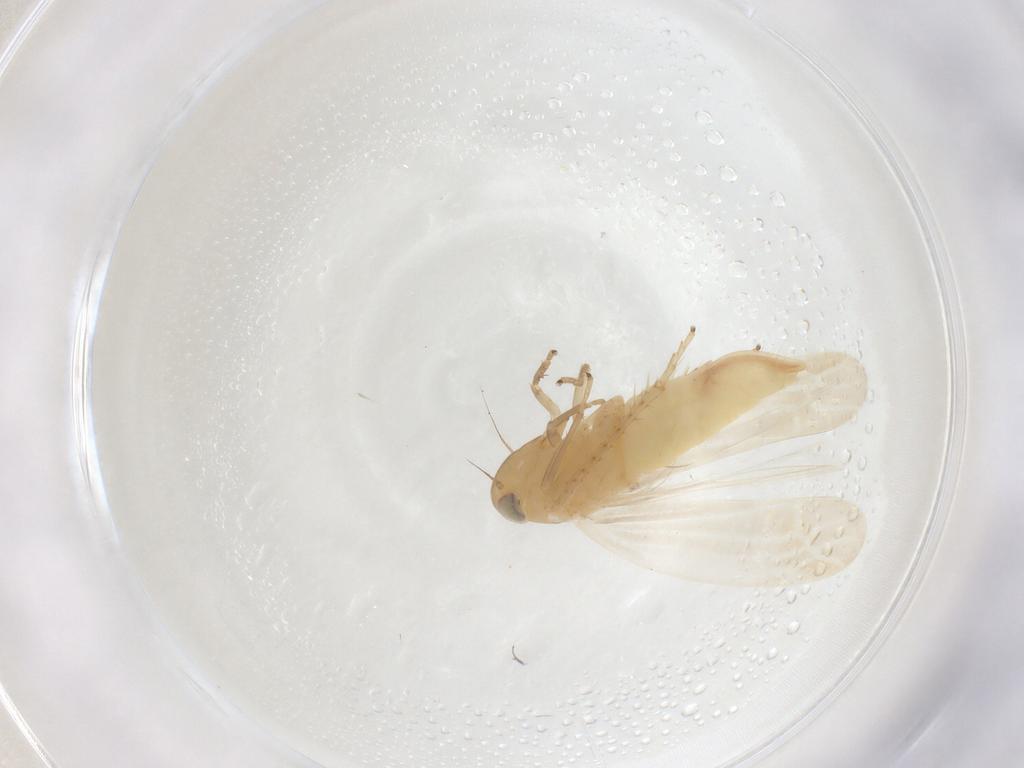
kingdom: Animalia
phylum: Arthropoda
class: Insecta
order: Hemiptera
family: Cicadellidae
